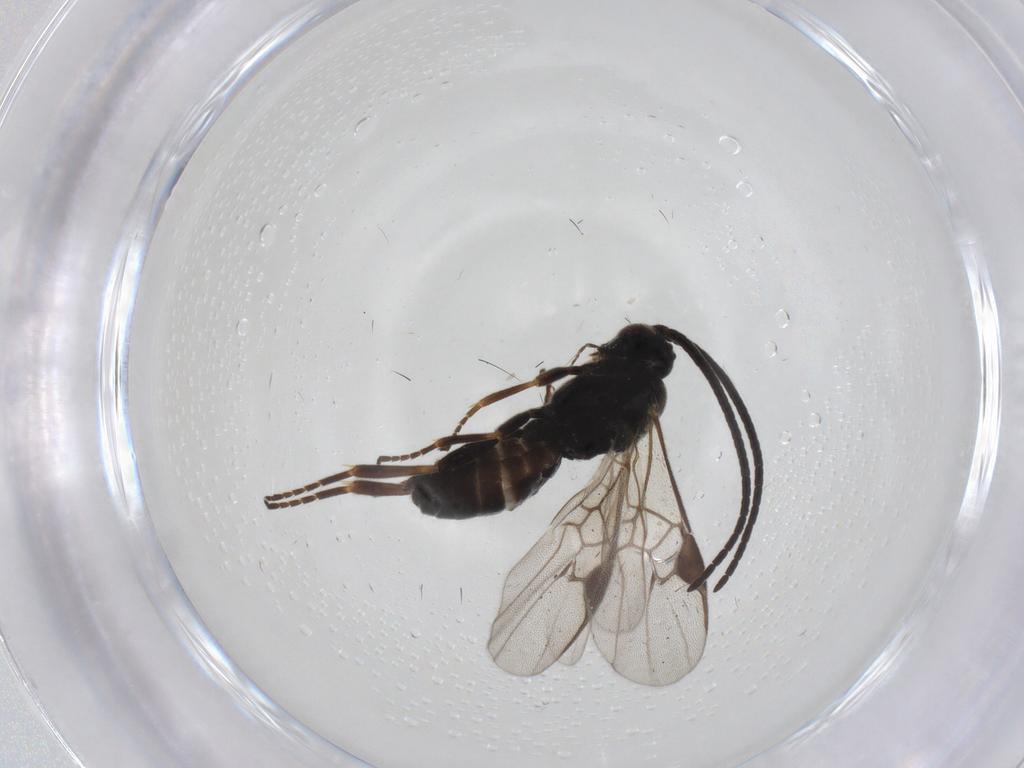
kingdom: Animalia
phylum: Arthropoda
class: Insecta
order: Hymenoptera
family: Braconidae
